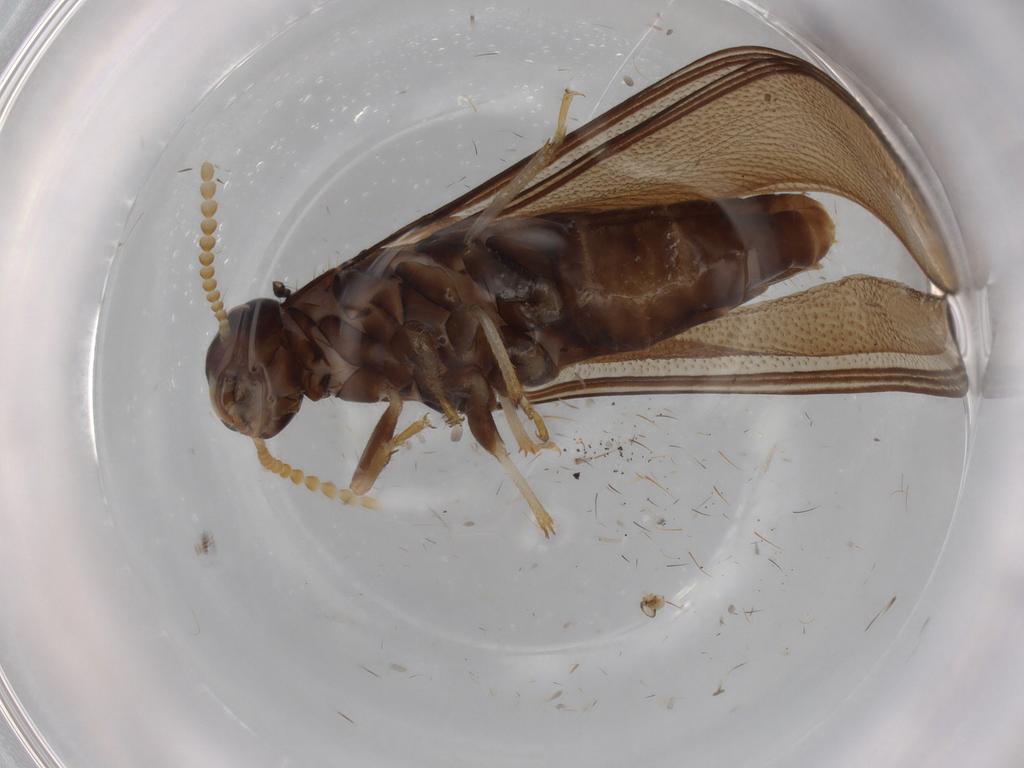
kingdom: Animalia
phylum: Arthropoda
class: Insecta
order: Blattodea
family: Kalotermitidae
